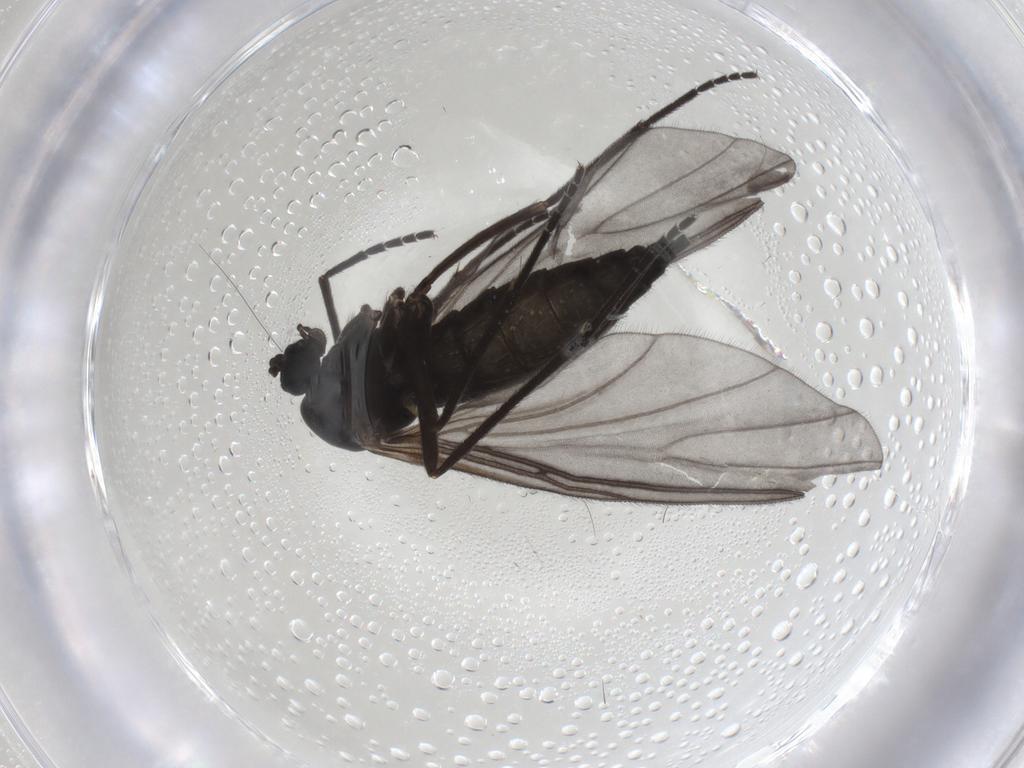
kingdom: Animalia
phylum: Arthropoda
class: Insecta
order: Diptera
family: Sciaridae
